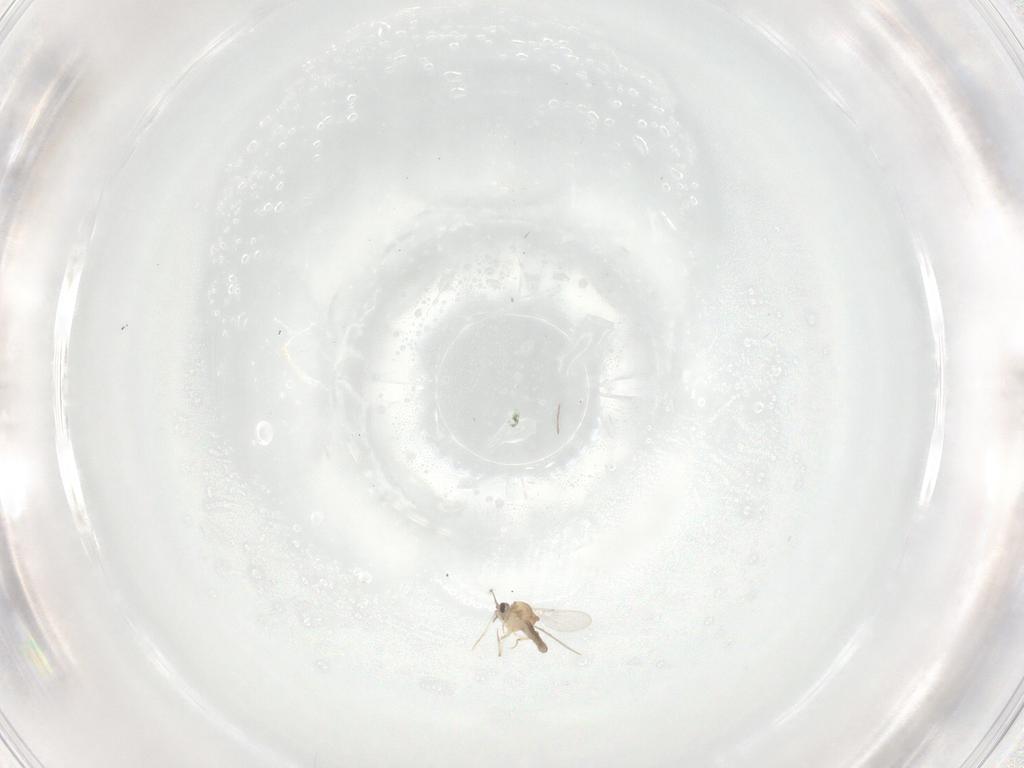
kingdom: Animalia
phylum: Arthropoda
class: Insecta
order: Diptera
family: Ceratopogonidae
